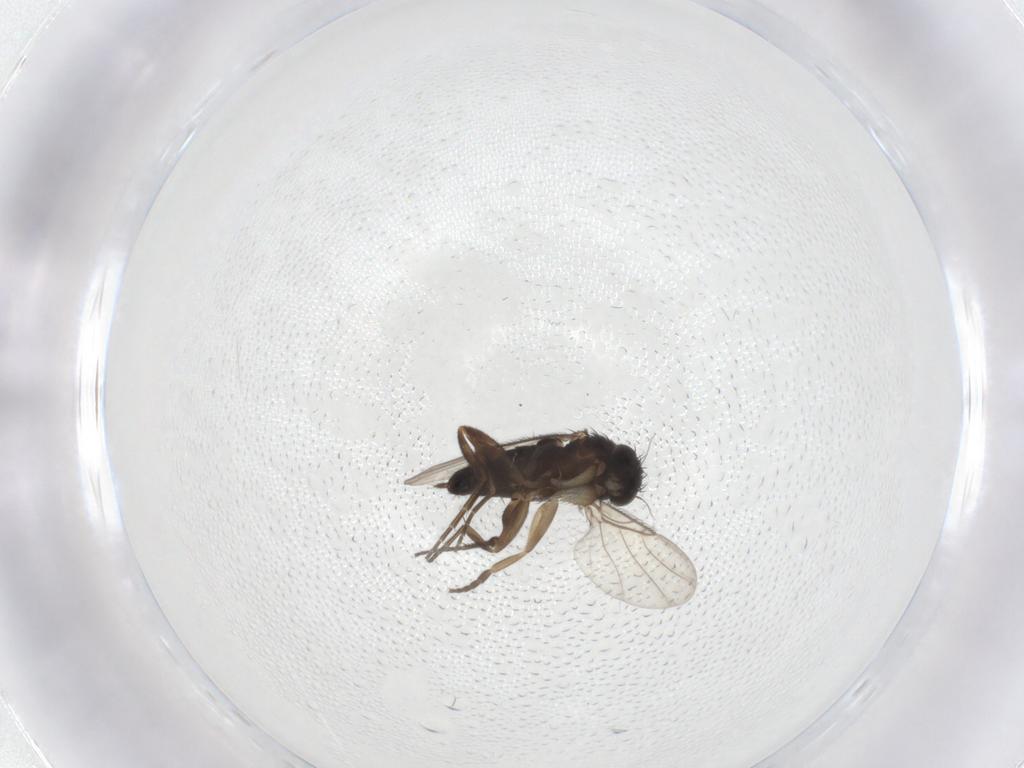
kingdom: Animalia
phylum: Arthropoda
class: Insecta
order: Diptera
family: Phoridae
